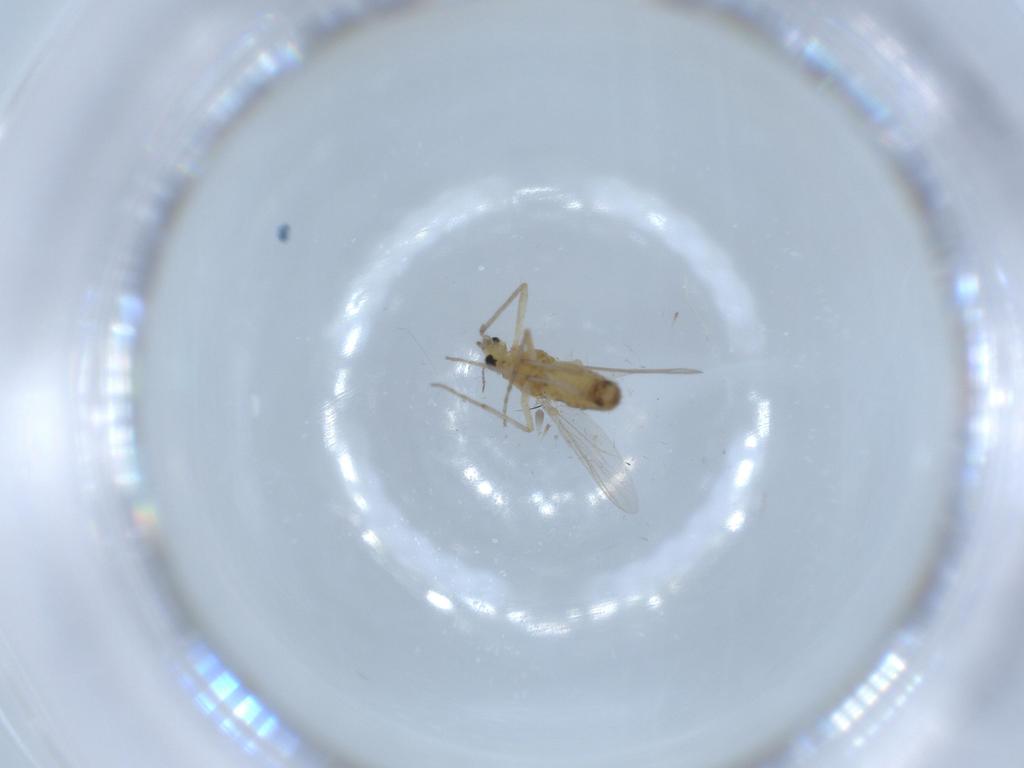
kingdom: Animalia
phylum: Arthropoda
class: Insecta
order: Diptera
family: Chironomidae
